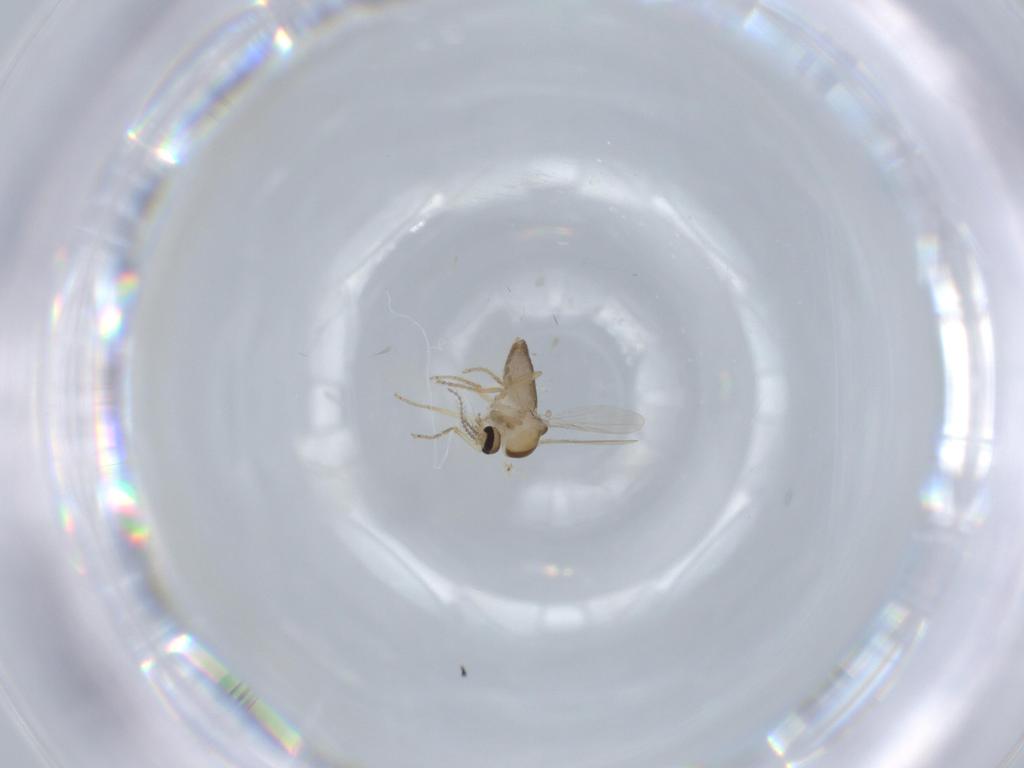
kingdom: Animalia
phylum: Arthropoda
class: Insecta
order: Diptera
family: Ceratopogonidae
